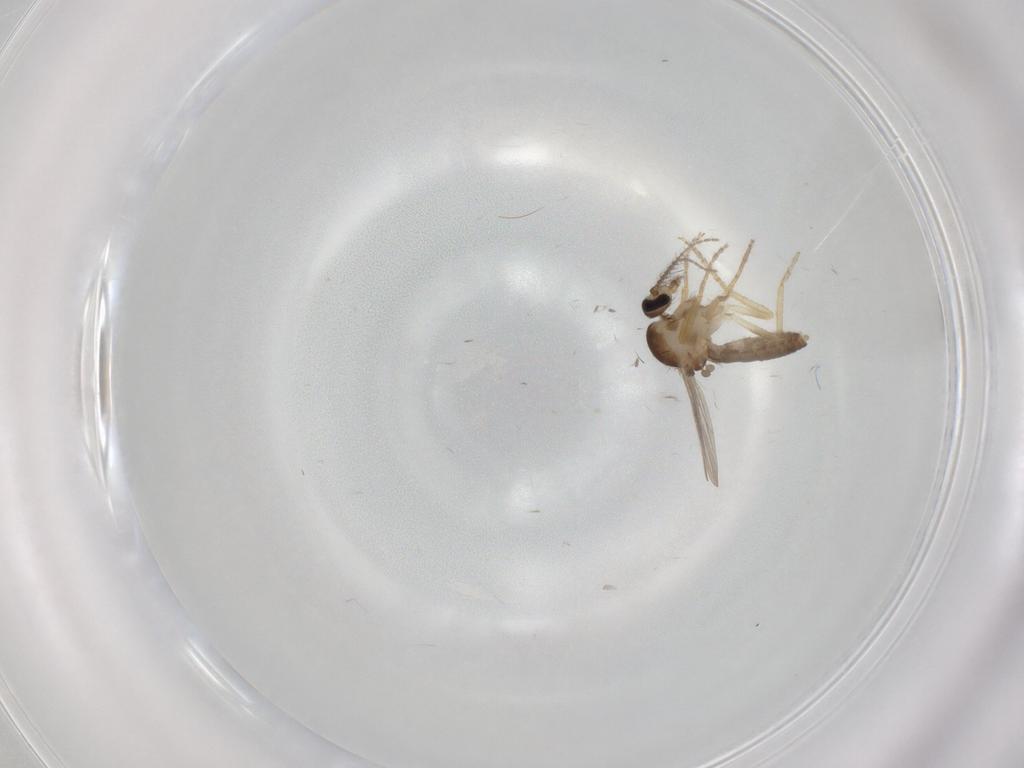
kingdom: Animalia
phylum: Arthropoda
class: Insecta
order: Diptera
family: Ceratopogonidae
